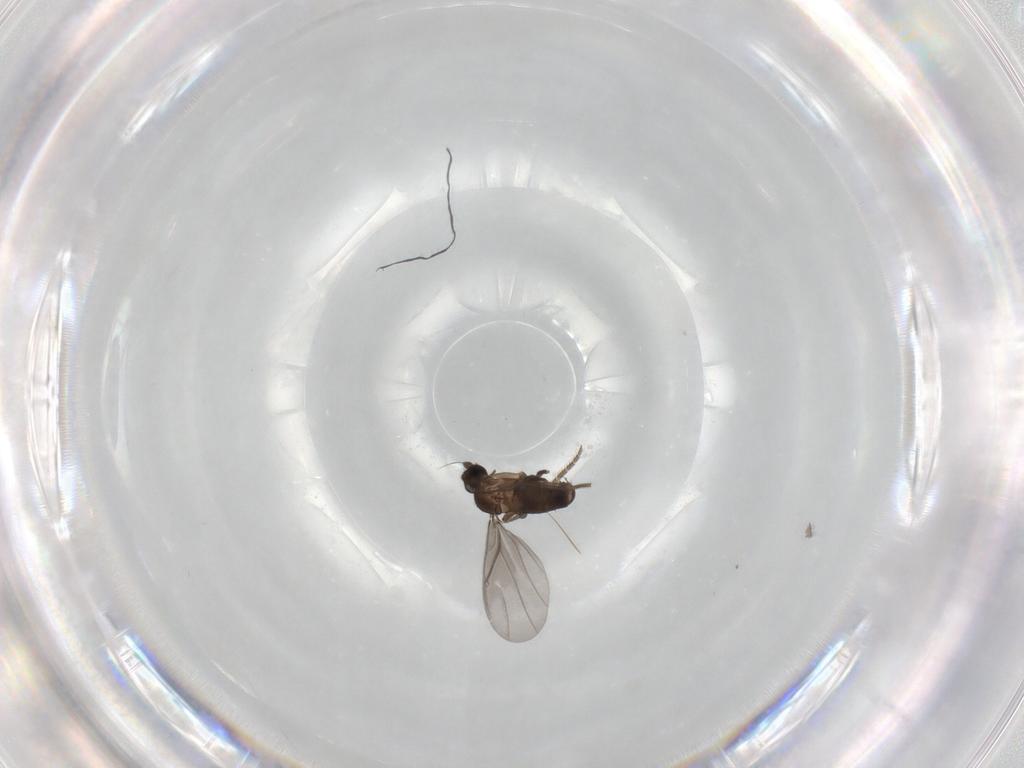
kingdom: Animalia
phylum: Arthropoda
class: Insecta
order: Diptera
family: Phoridae
